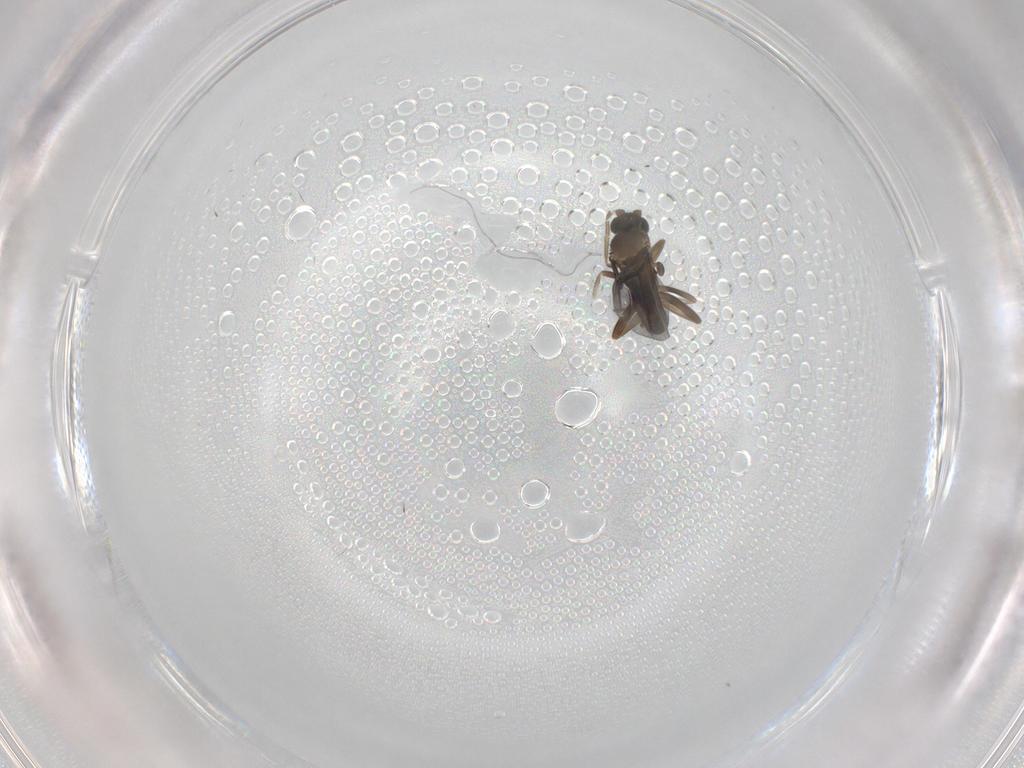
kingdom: Animalia
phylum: Arthropoda
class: Insecta
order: Diptera
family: Phoridae
